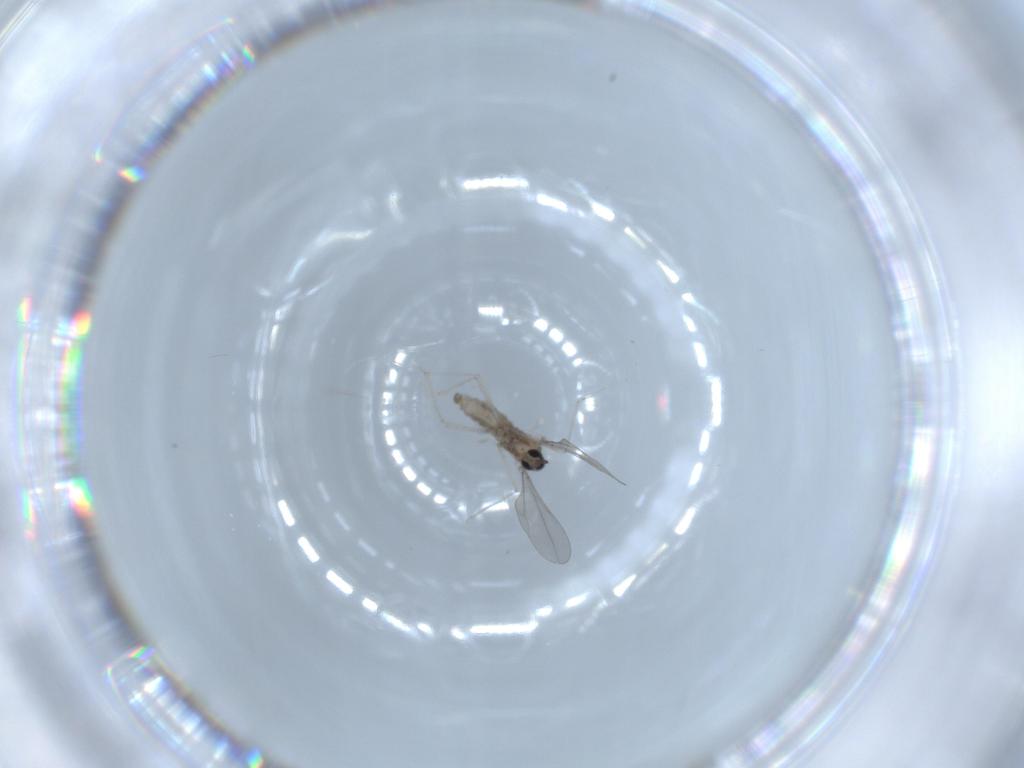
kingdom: Animalia
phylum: Arthropoda
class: Insecta
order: Diptera
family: Cecidomyiidae
